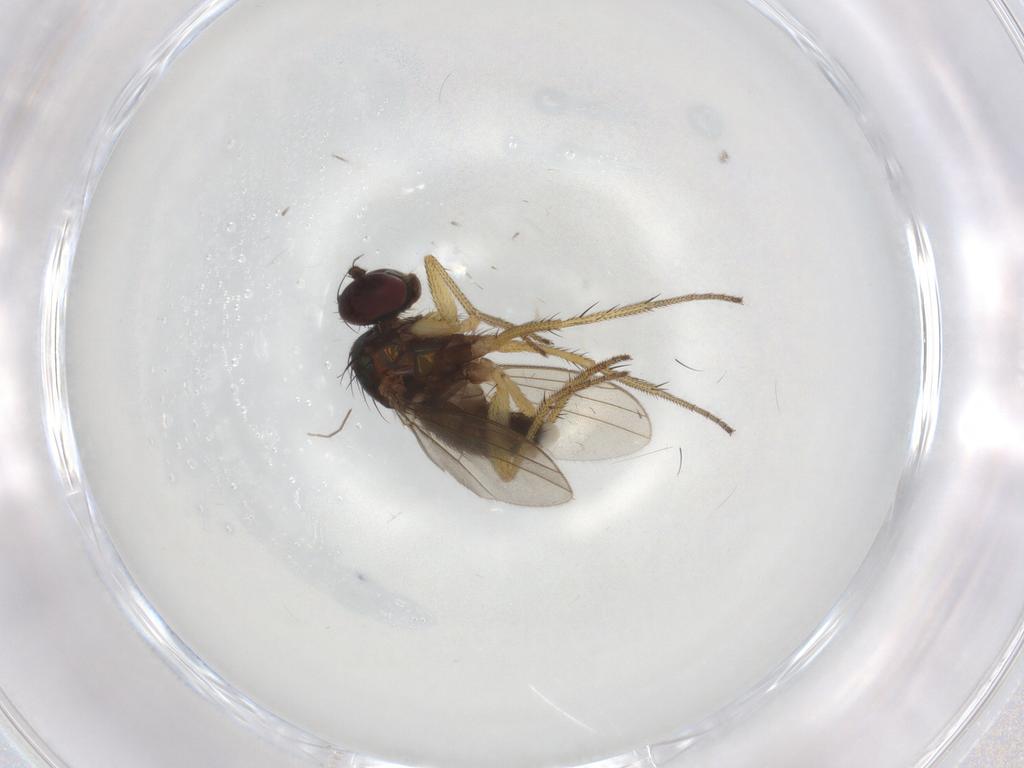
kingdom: Animalia
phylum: Arthropoda
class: Insecta
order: Diptera
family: Dolichopodidae
